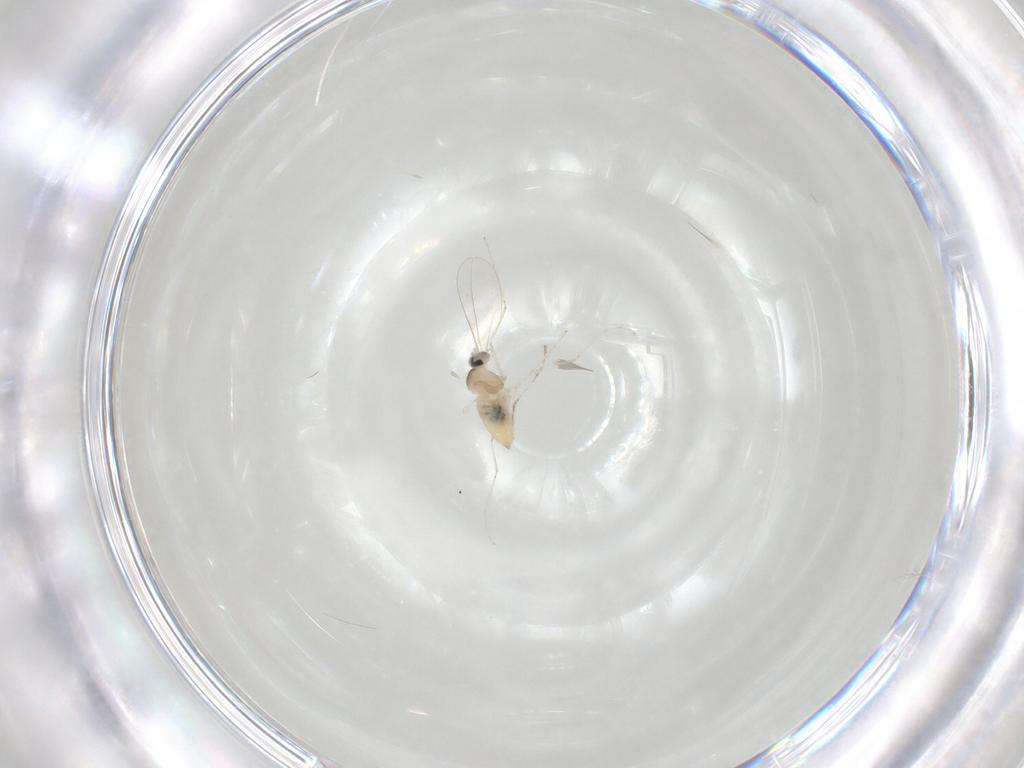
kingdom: Animalia
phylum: Arthropoda
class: Insecta
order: Diptera
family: Cecidomyiidae
